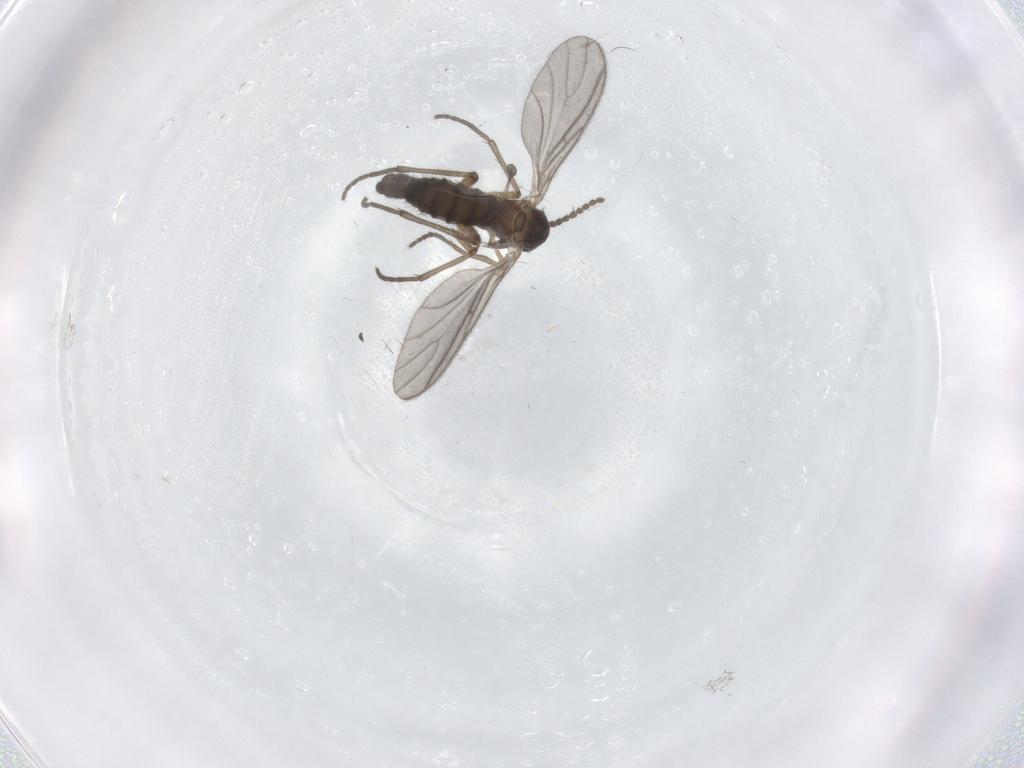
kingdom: Animalia
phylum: Arthropoda
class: Insecta
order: Diptera
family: Sciaridae
